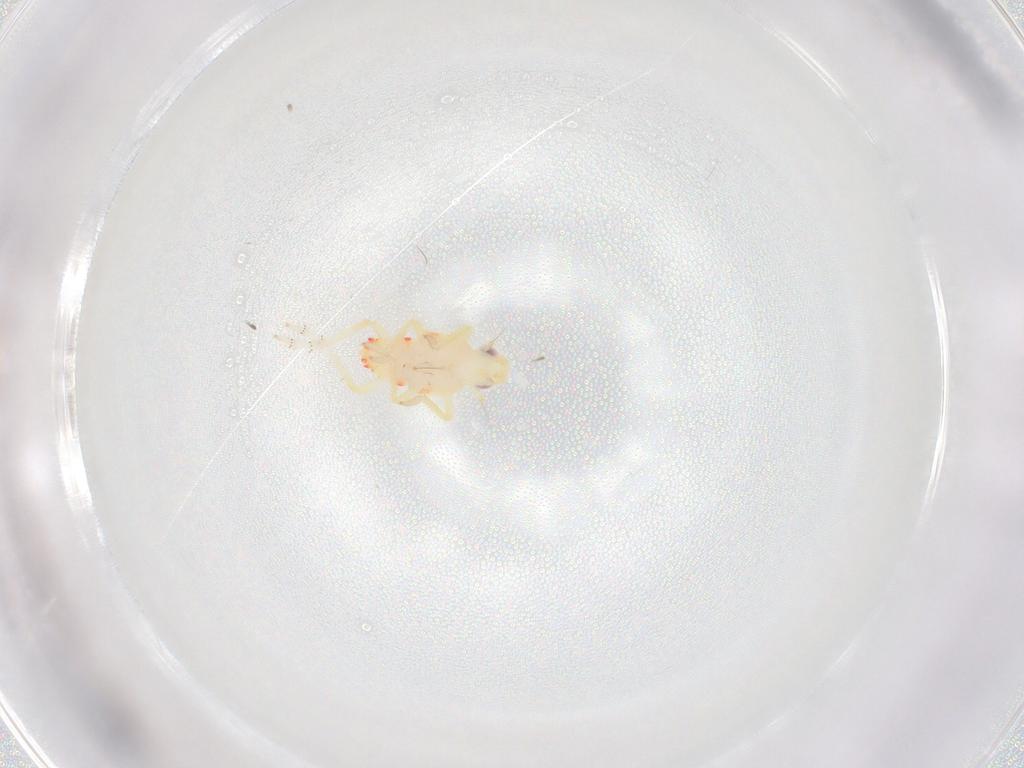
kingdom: Animalia
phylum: Arthropoda
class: Insecta
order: Hemiptera
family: Tropiduchidae
